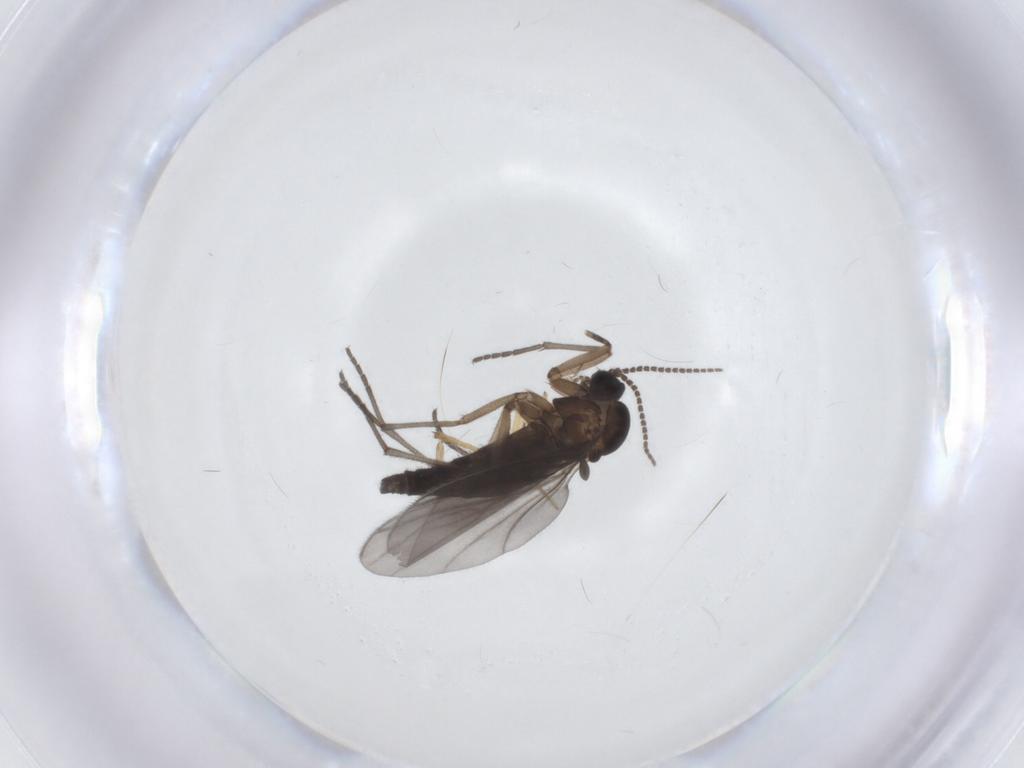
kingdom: Animalia
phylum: Arthropoda
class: Insecta
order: Diptera
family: Sciaridae
